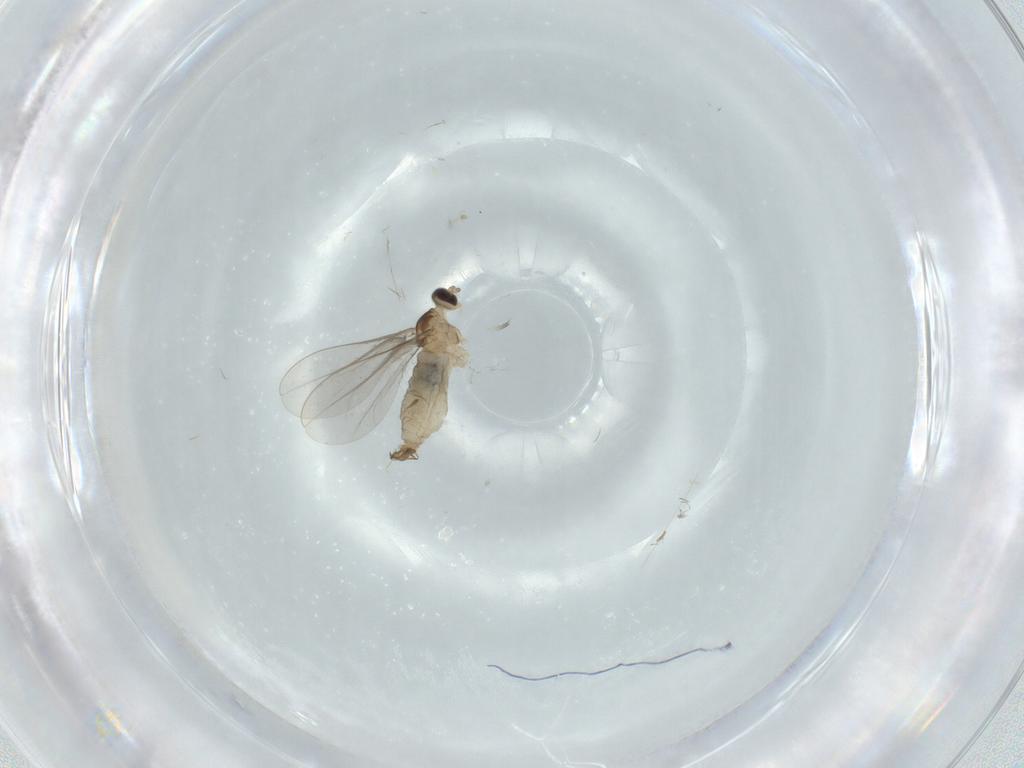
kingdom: Animalia
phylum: Arthropoda
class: Insecta
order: Diptera
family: Cecidomyiidae
